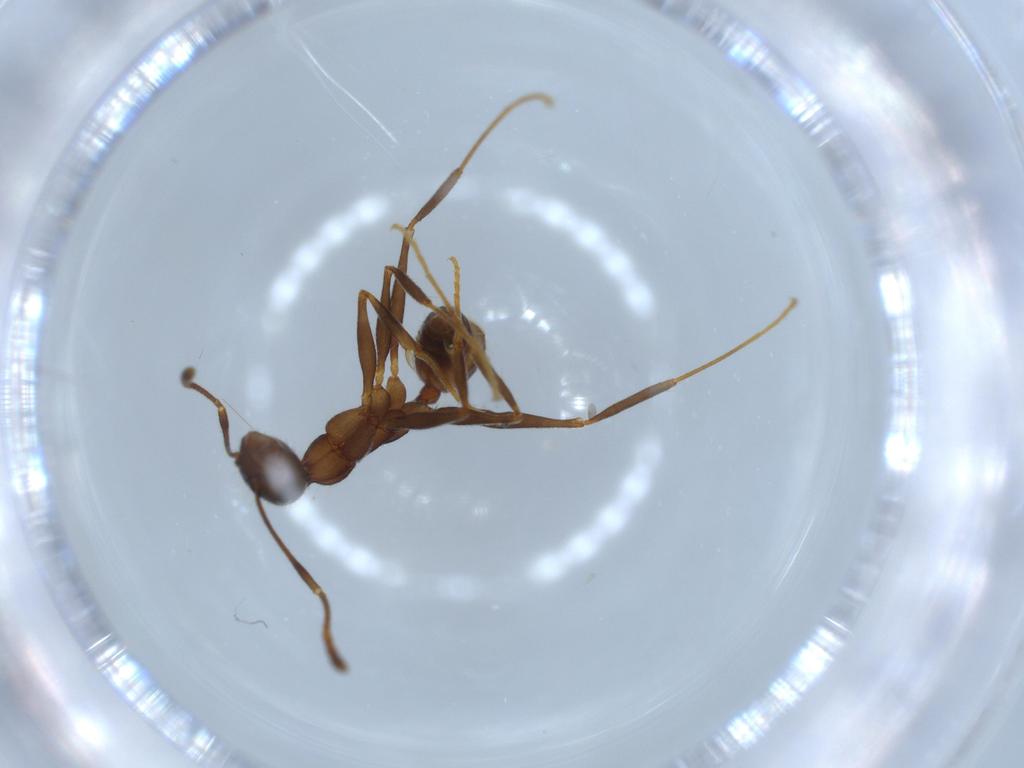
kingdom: Animalia
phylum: Arthropoda
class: Insecta
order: Hymenoptera
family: Formicidae
